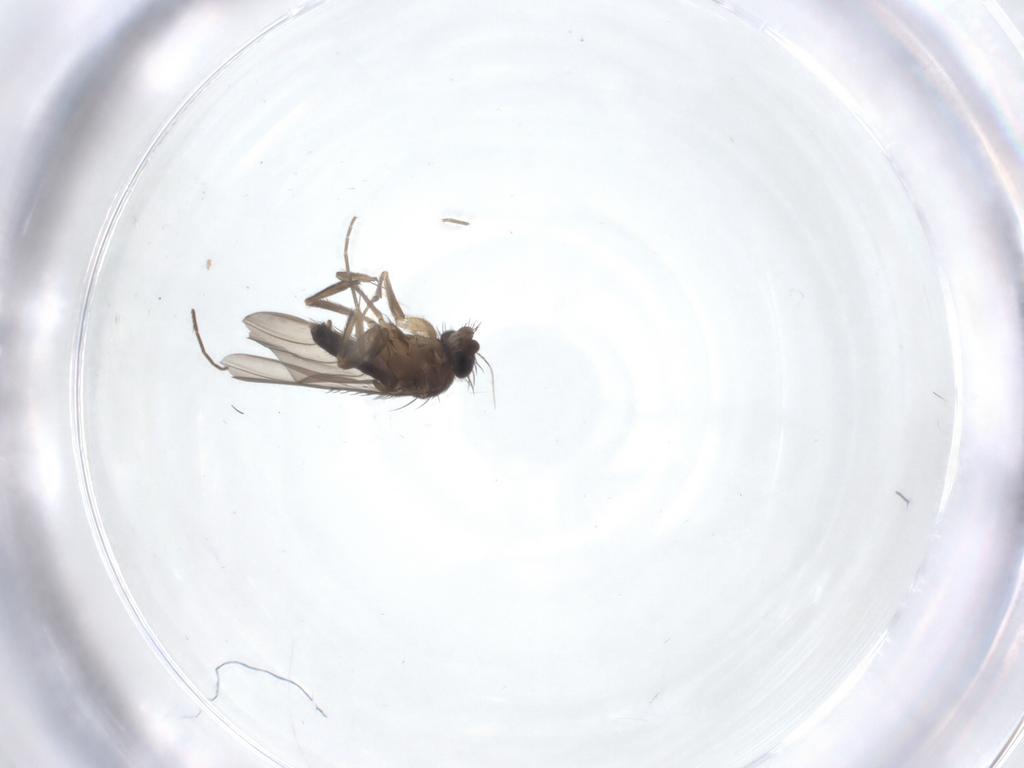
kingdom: Animalia
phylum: Arthropoda
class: Insecta
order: Diptera
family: Phoridae
